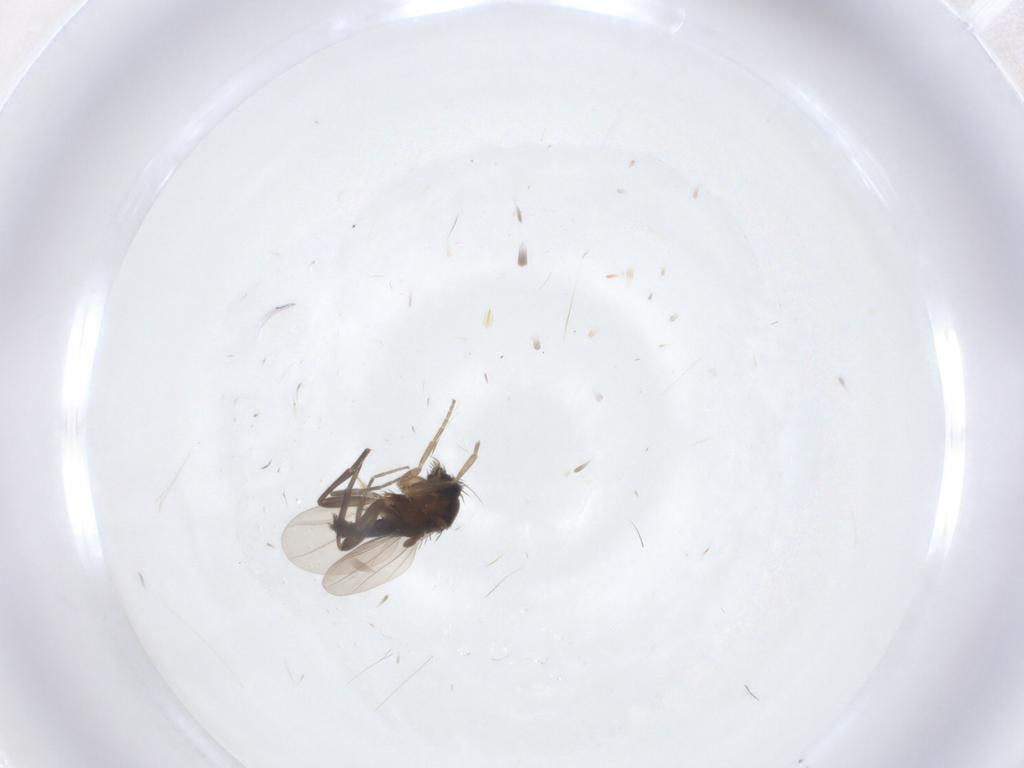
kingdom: Animalia
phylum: Arthropoda
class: Insecta
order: Diptera
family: Phoridae
